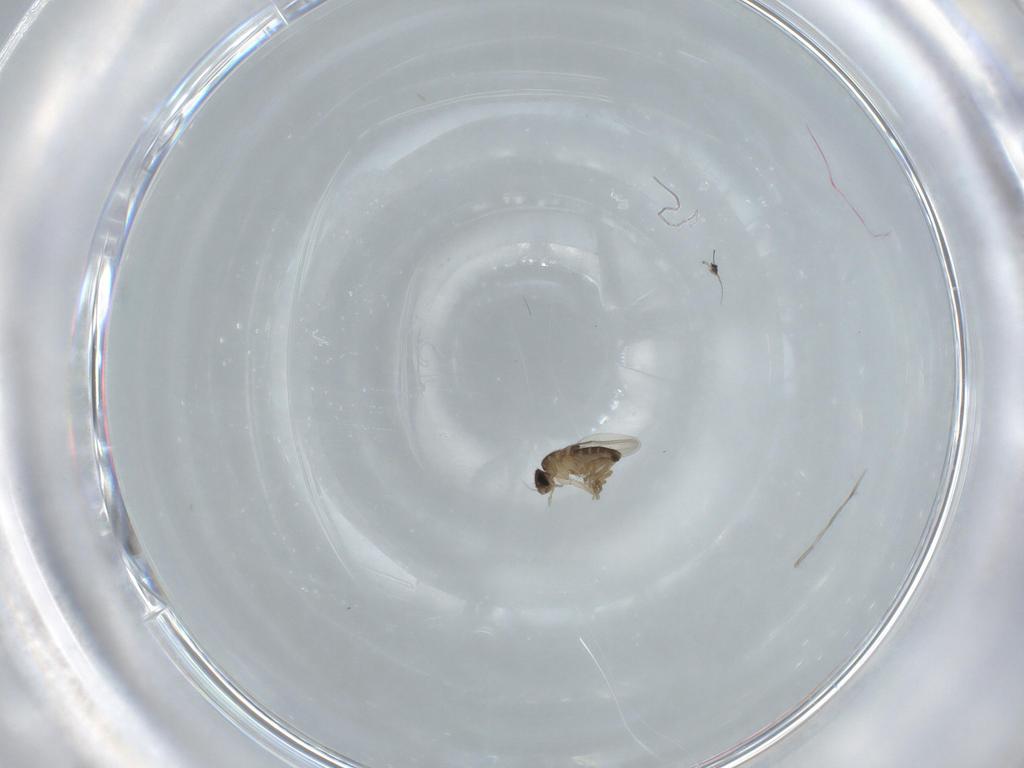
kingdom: Animalia
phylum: Arthropoda
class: Insecta
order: Diptera
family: Phoridae
